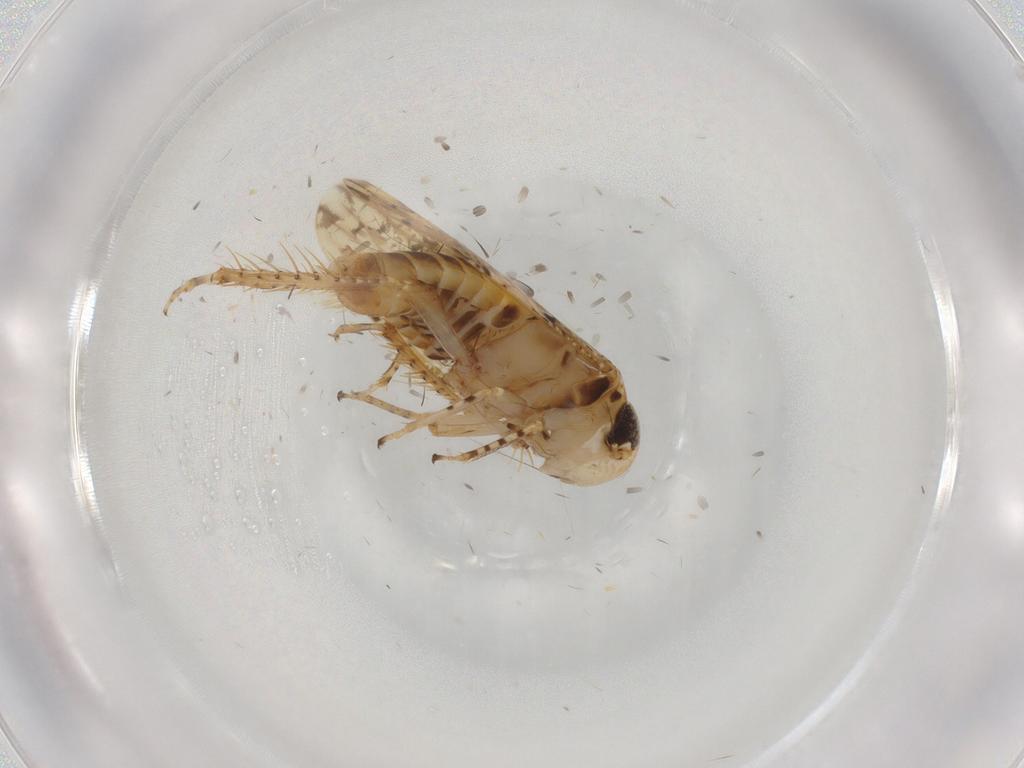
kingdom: Animalia
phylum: Arthropoda
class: Insecta
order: Hemiptera
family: Cicadellidae
